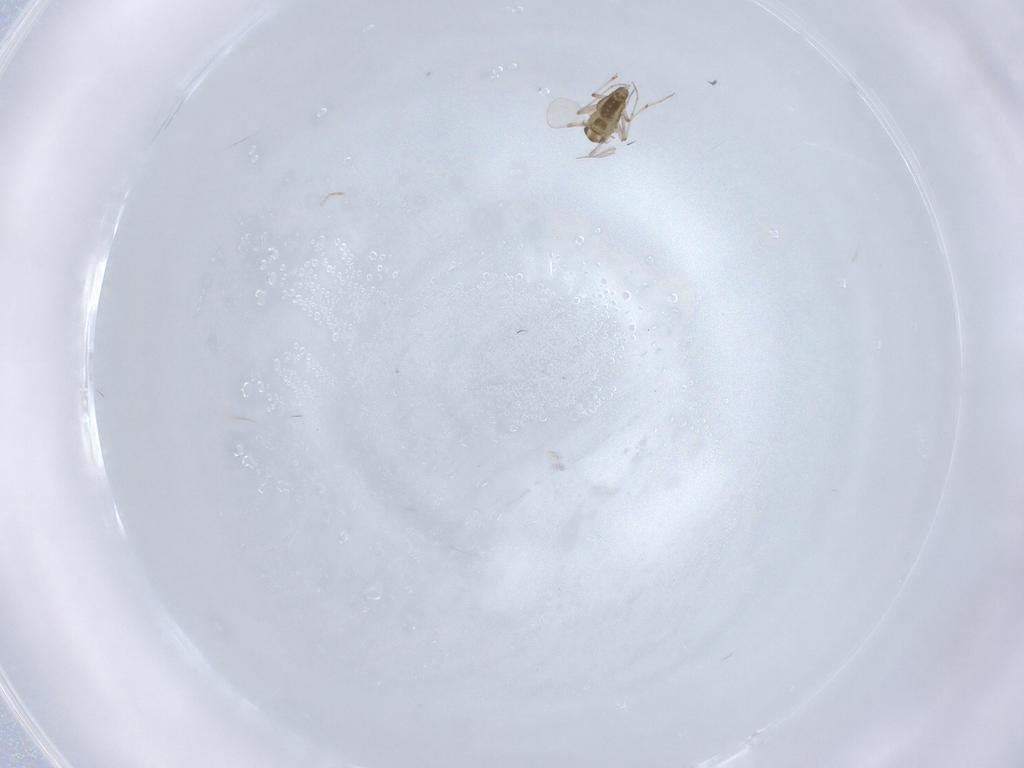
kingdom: Animalia
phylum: Arthropoda
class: Insecta
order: Diptera
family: Chironomidae
